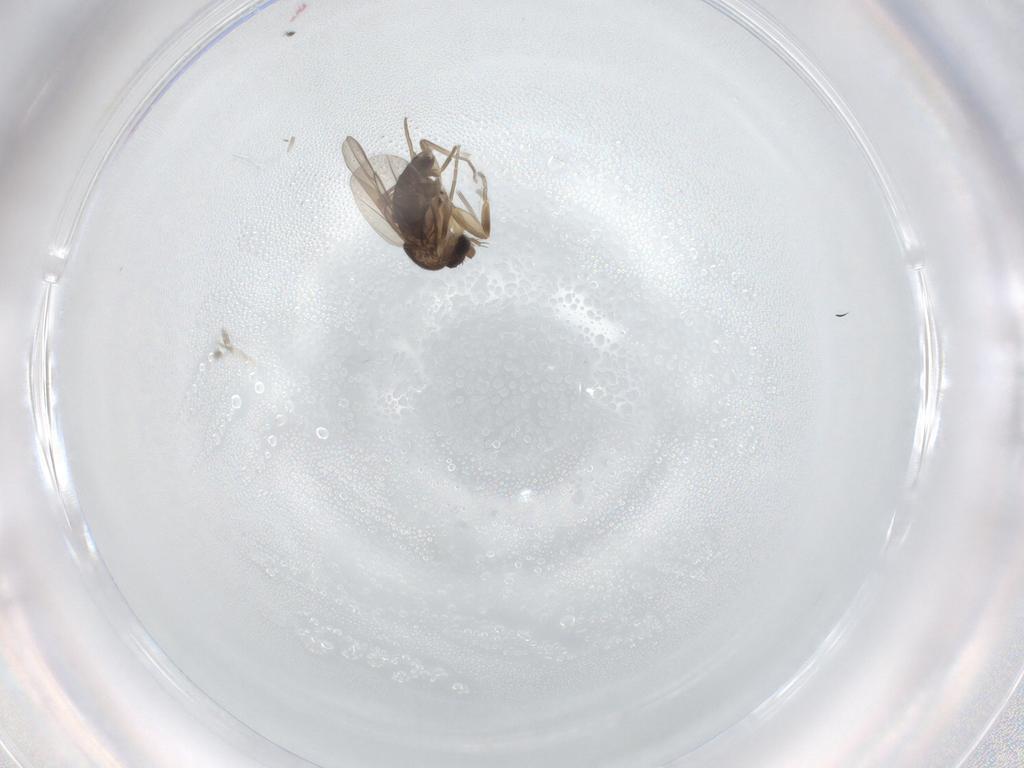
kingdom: Animalia
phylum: Arthropoda
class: Insecta
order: Diptera
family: Phoridae
